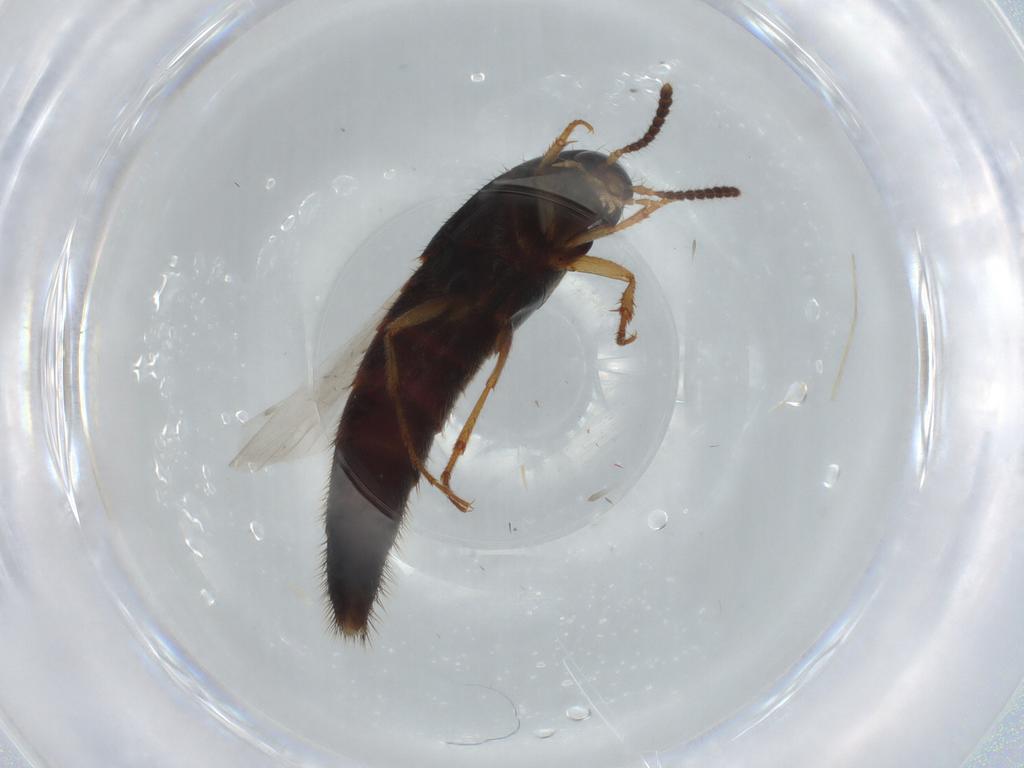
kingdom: Animalia
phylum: Arthropoda
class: Insecta
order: Coleoptera
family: Staphylinidae
